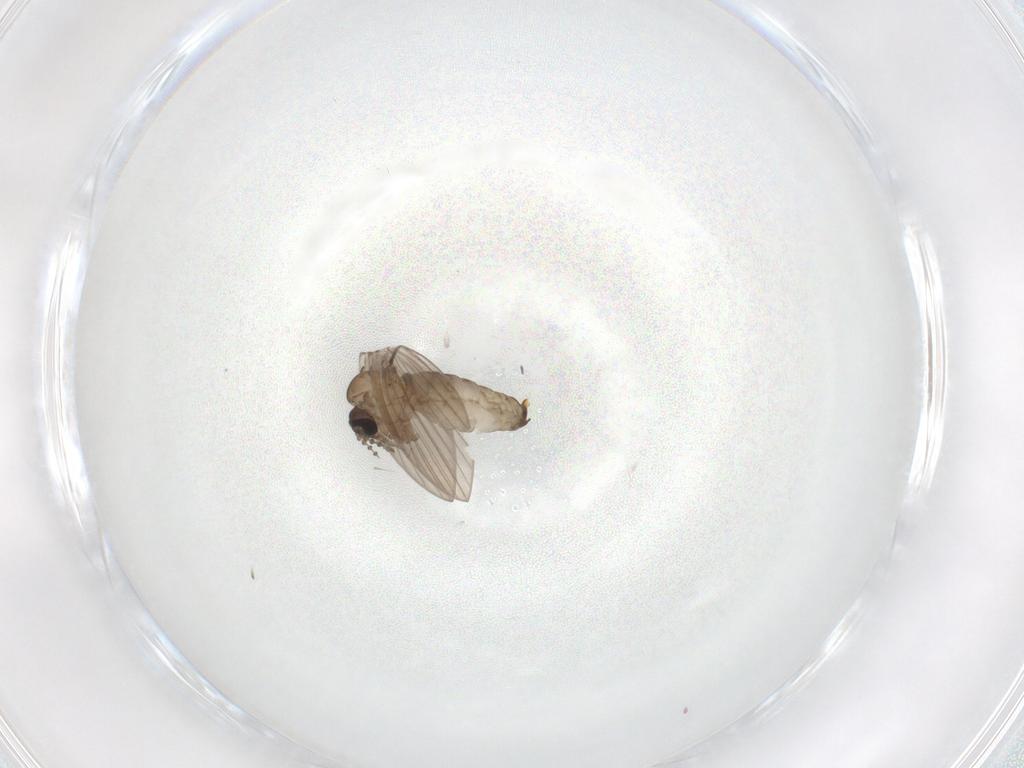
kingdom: Animalia
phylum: Arthropoda
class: Insecta
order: Diptera
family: Psychodidae
